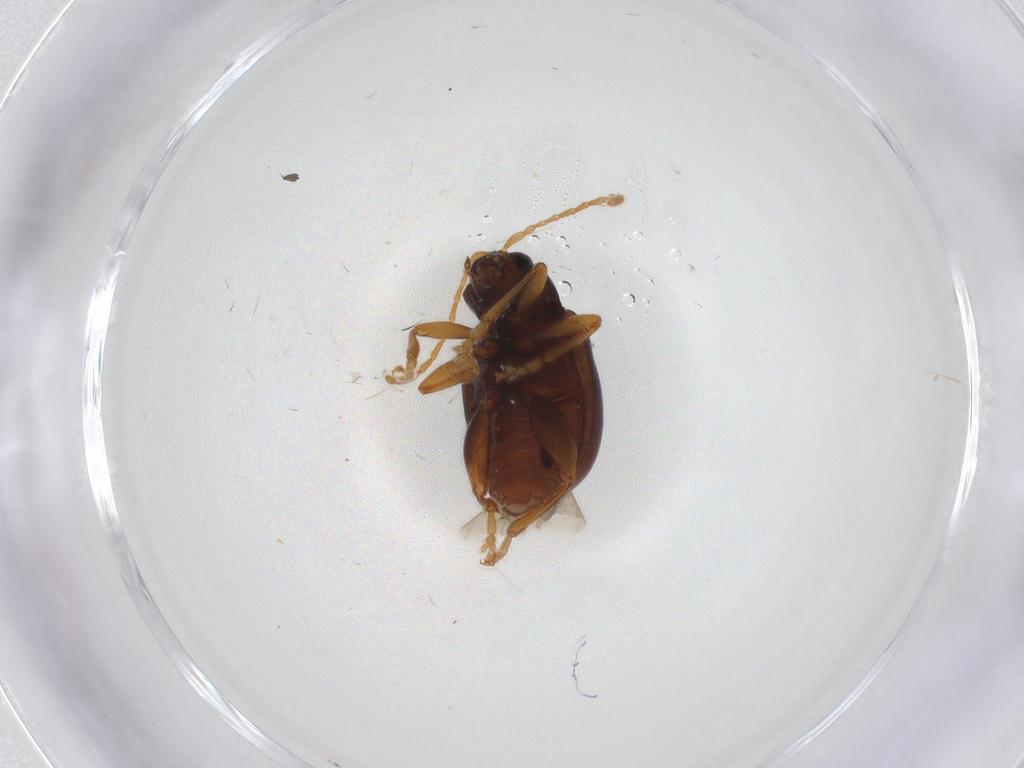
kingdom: Animalia
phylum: Arthropoda
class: Insecta
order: Coleoptera
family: Chrysomelidae
